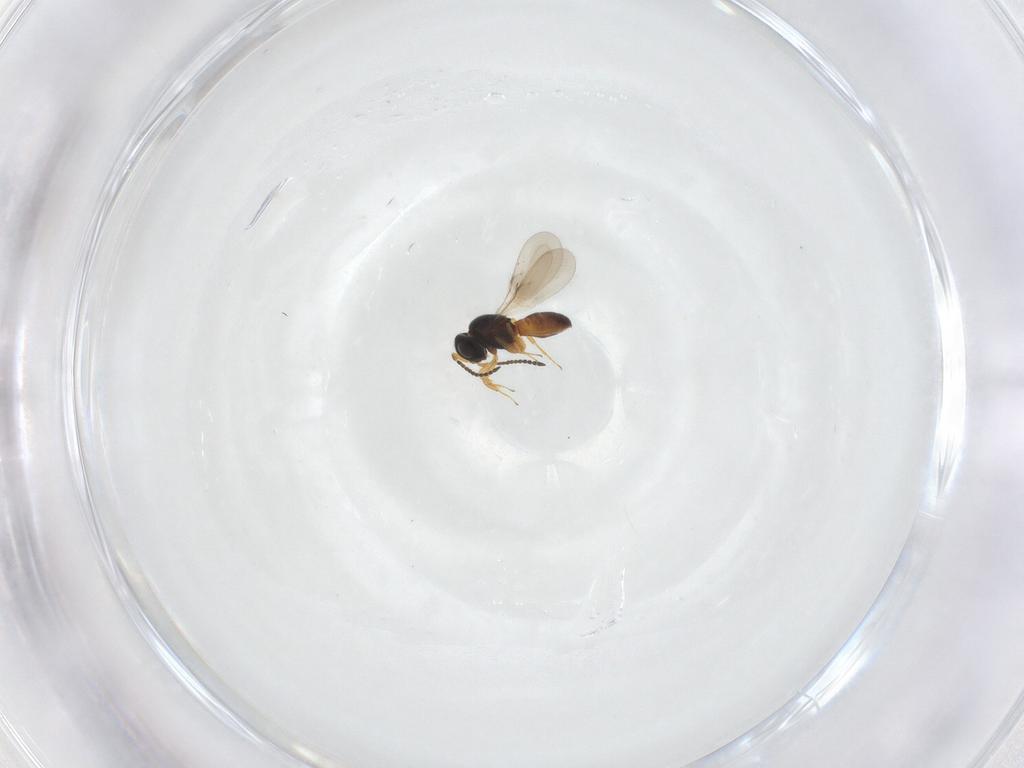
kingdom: Animalia
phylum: Arthropoda
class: Insecta
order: Hymenoptera
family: Scelionidae
